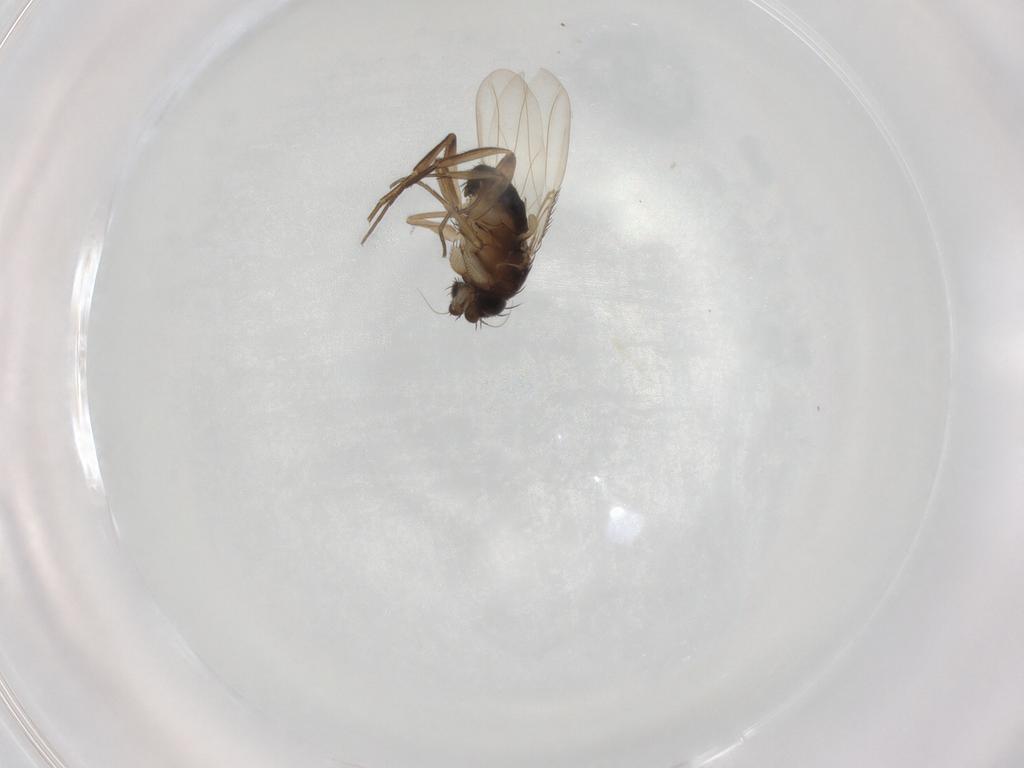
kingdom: Animalia
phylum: Arthropoda
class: Insecta
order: Diptera
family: Phoridae
